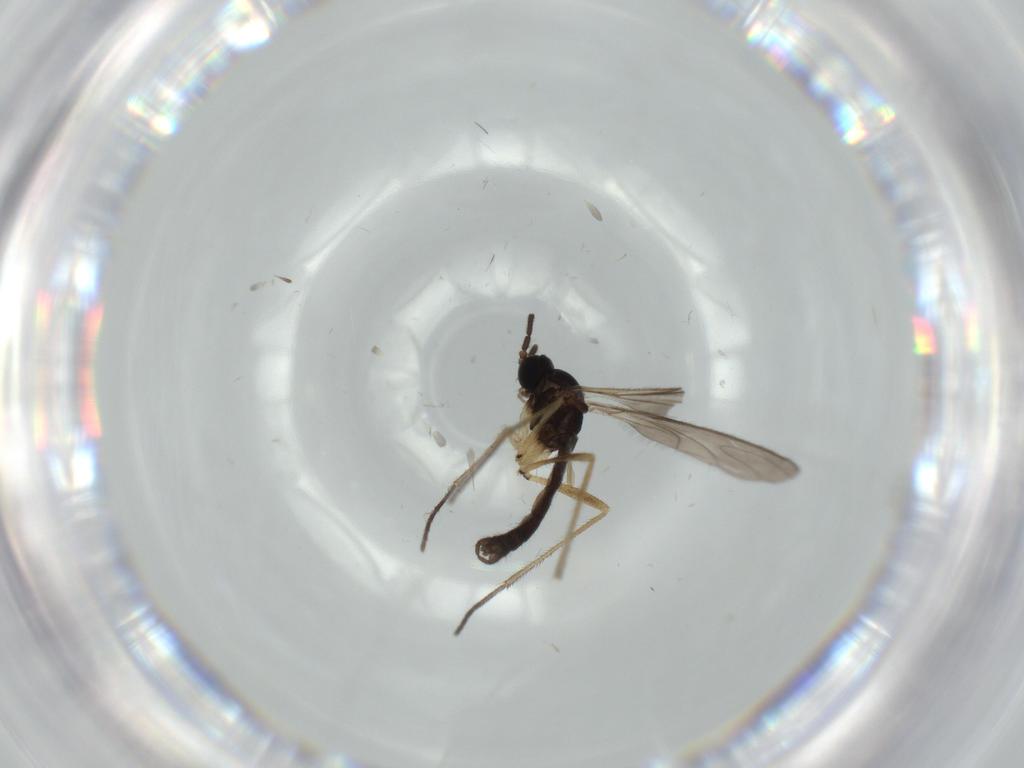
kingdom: Animalia
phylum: Arthropoda
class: Insecta
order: Diptera
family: Sciaridae
